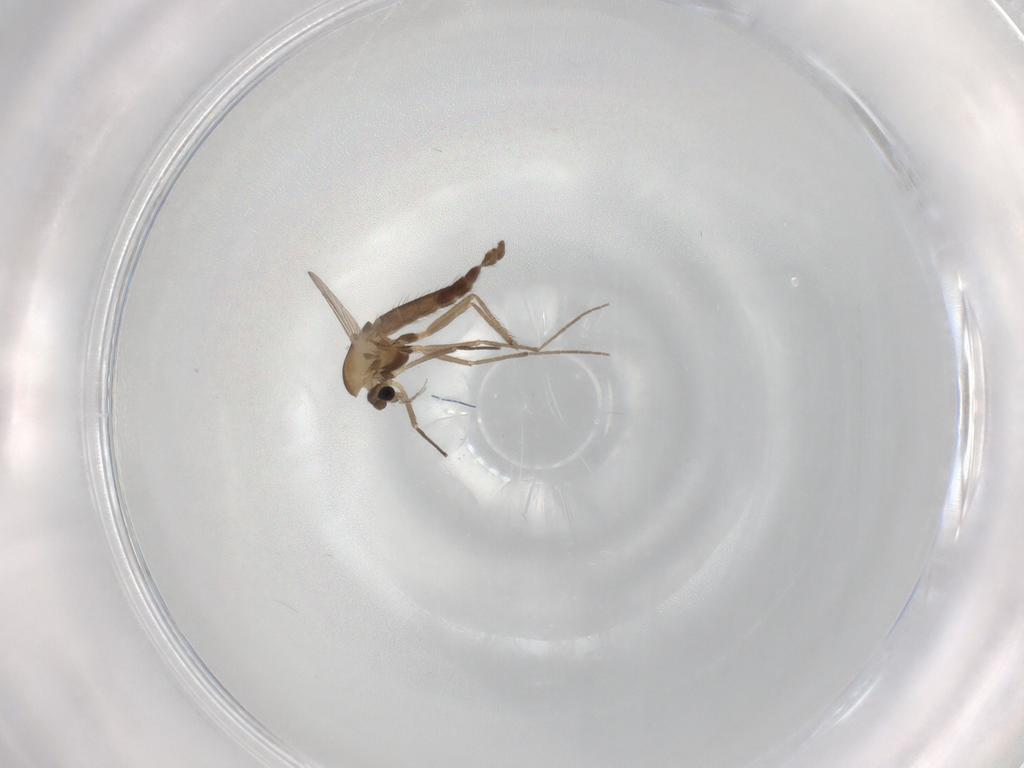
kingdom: Animalia
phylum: Arthropoda
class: Insecta
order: Diptera
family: Chironomidae
